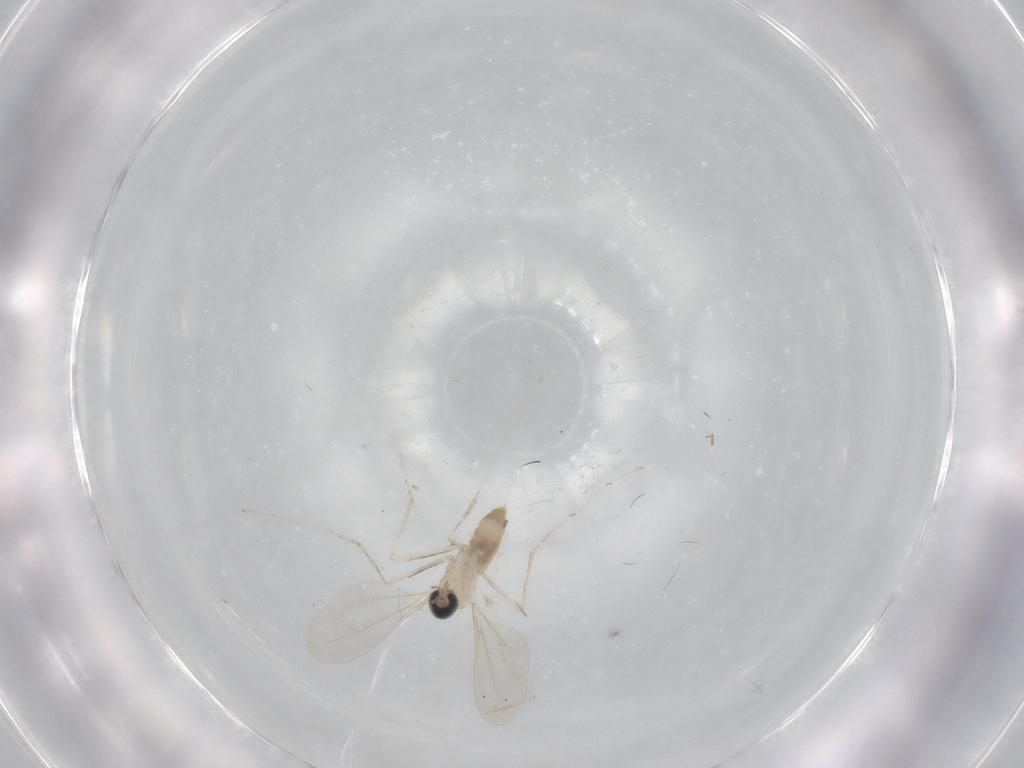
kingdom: Animalia
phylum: Arthropoda
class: Insecta
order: Diptera
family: Cecidomyiidae
